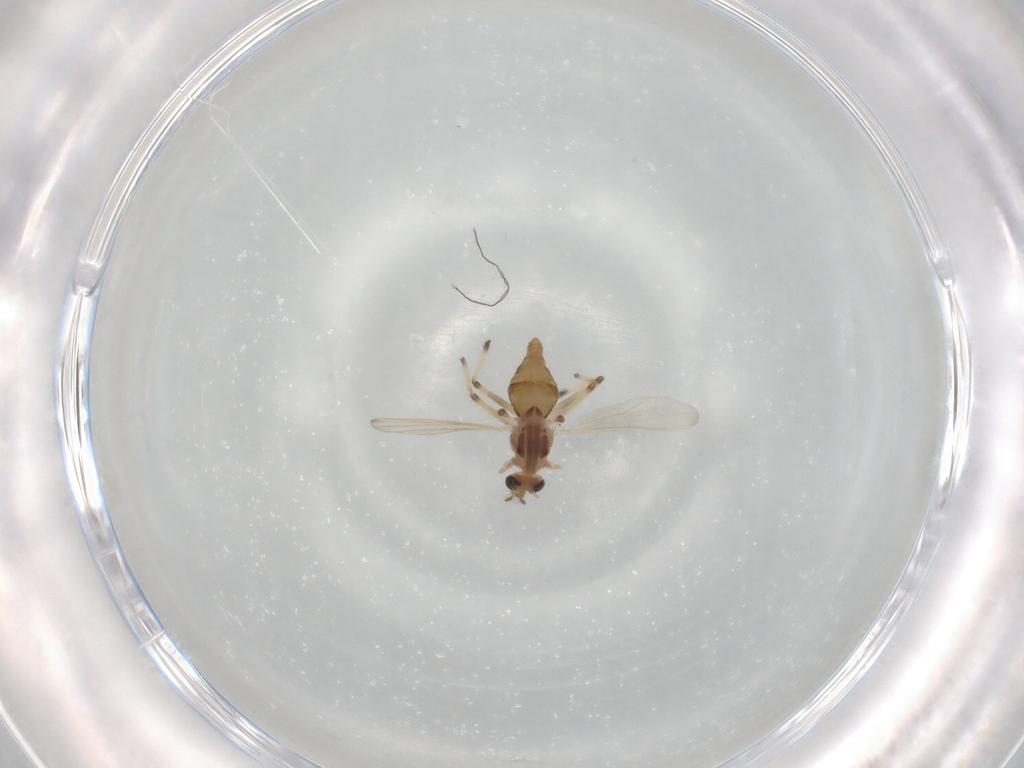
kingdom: Animalia
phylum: Arthropoda
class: Insecta
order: Diptera
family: Chironomidae
